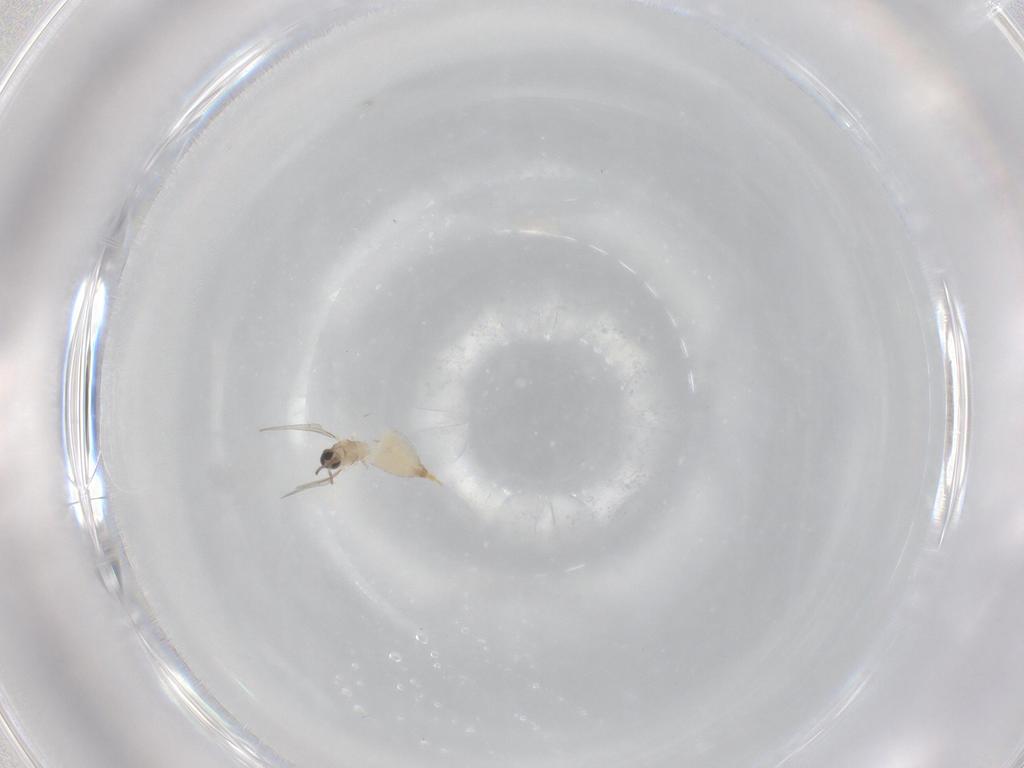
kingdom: Animalia
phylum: Arthropoda
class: Insecta
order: Diptera
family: Cecidomyiidae
